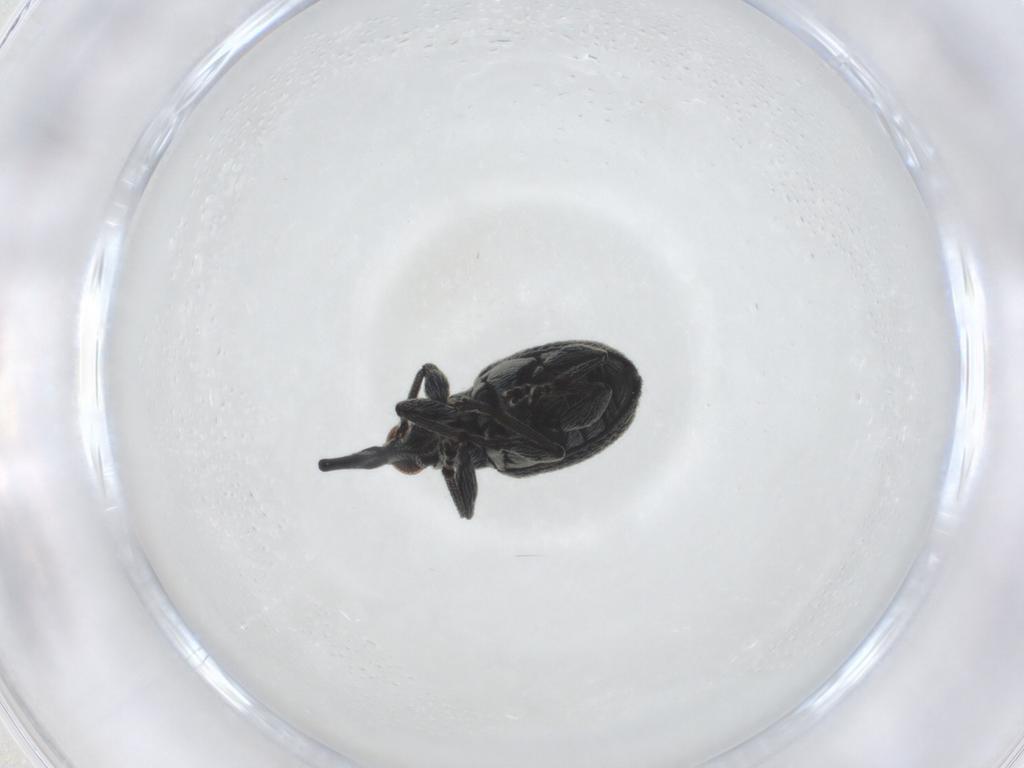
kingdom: Animalia
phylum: Arthropoda
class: Insecta
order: Coleoptera
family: Brentidae
